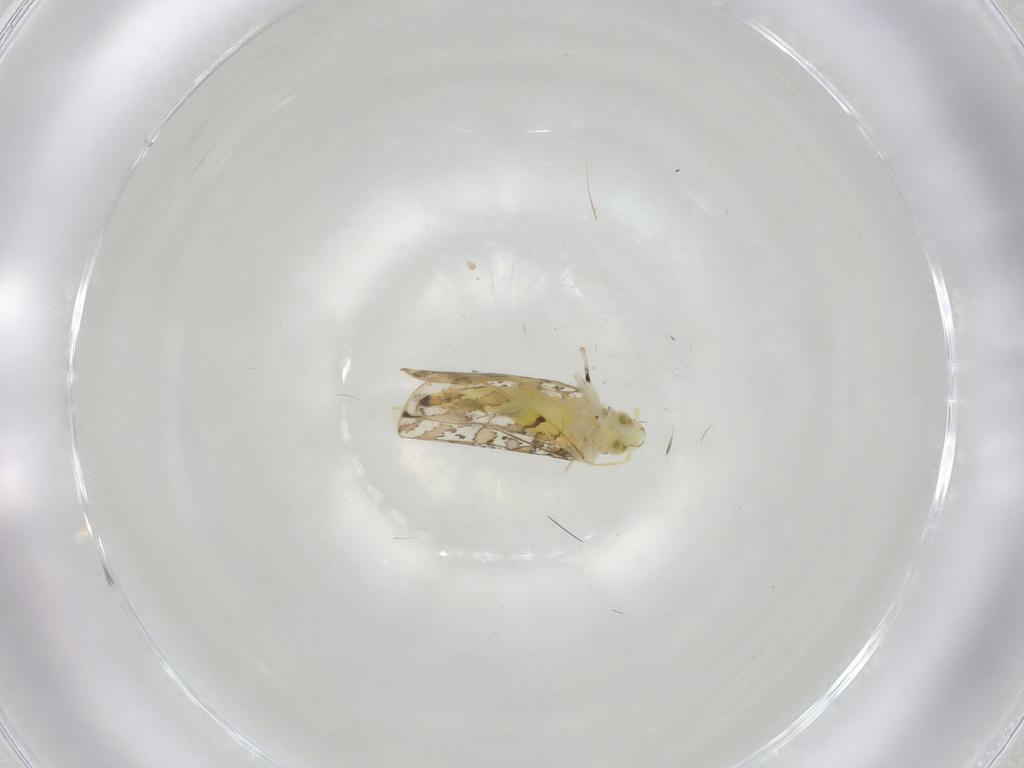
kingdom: Animalia
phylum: Arthropoda
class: Insecta
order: Hemiptera
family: Aleyrodidae
